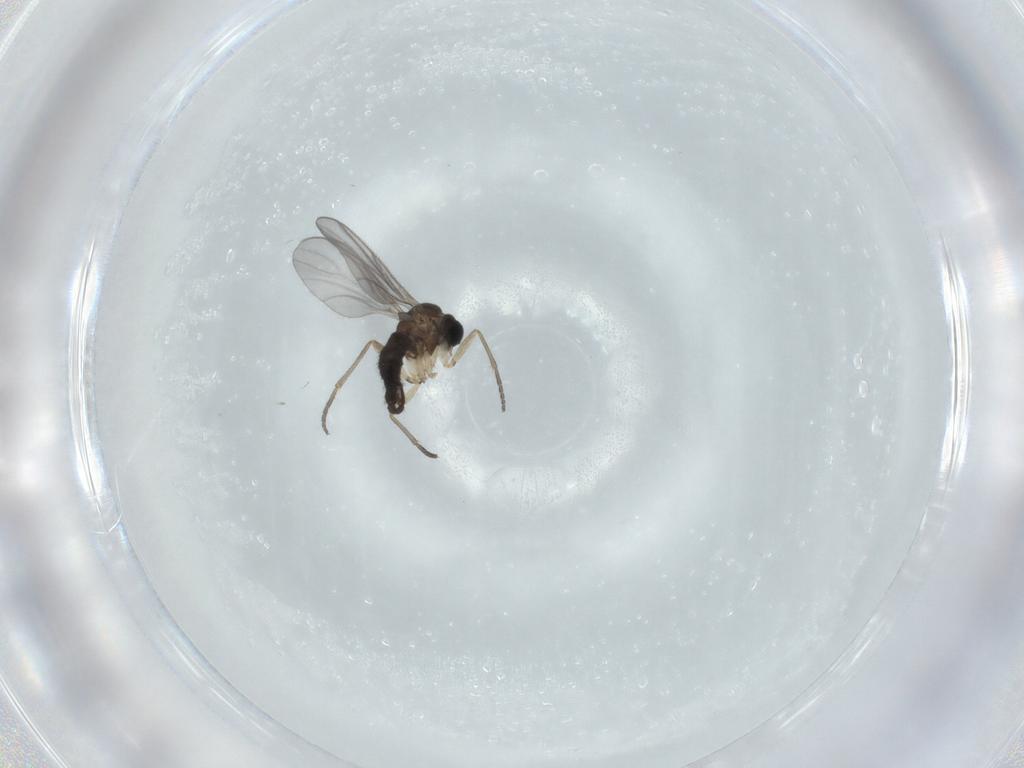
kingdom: Animalia
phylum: Arthropoda
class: Insecta
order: Diptera
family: Sciaridae
